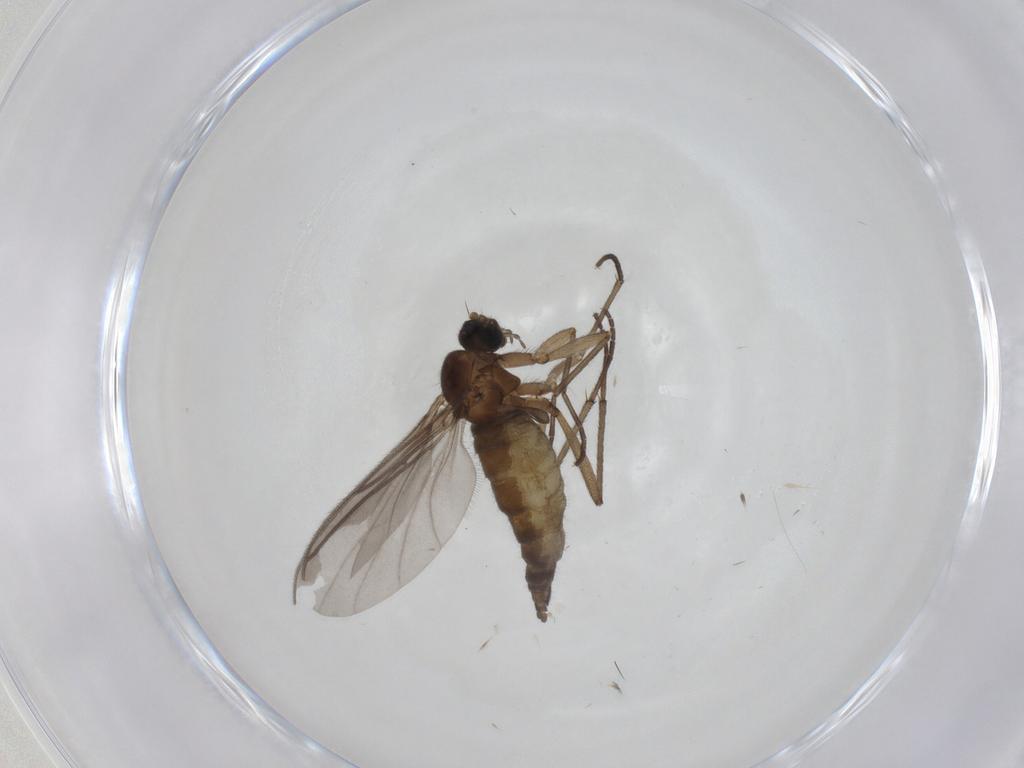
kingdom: Animalia
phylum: Arthropoda
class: Insecta
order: Diptera
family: Sciaridae
